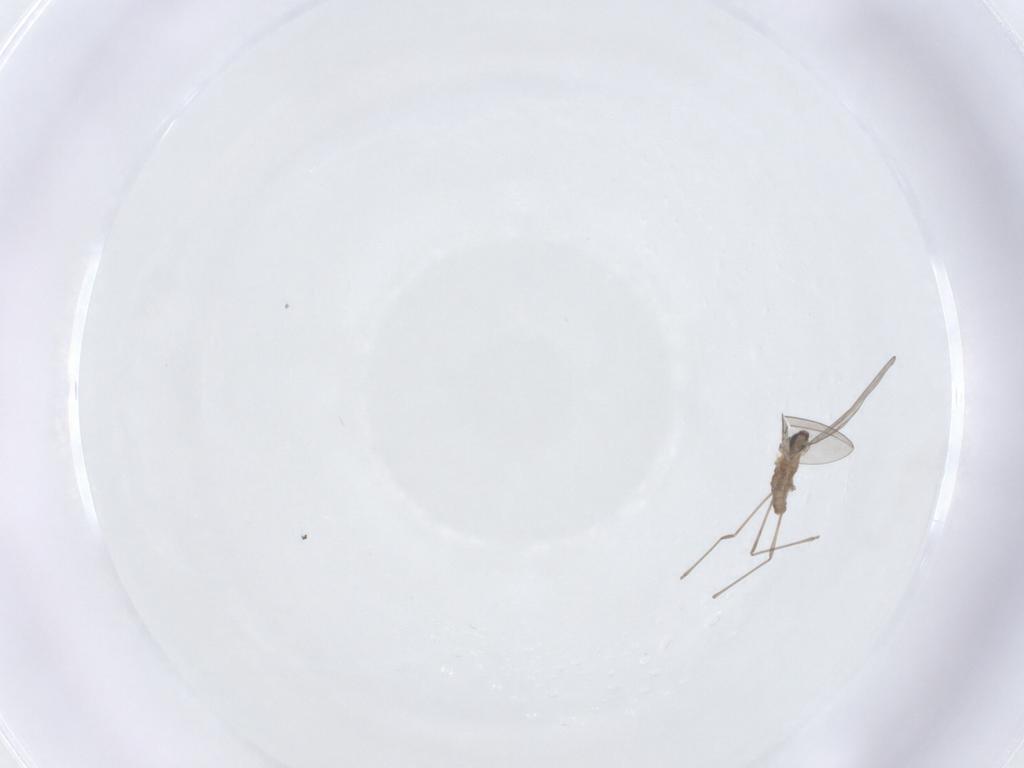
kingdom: Animalia
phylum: Arthropoda
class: Insecta
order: Diptera
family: Cecidomyiidae
